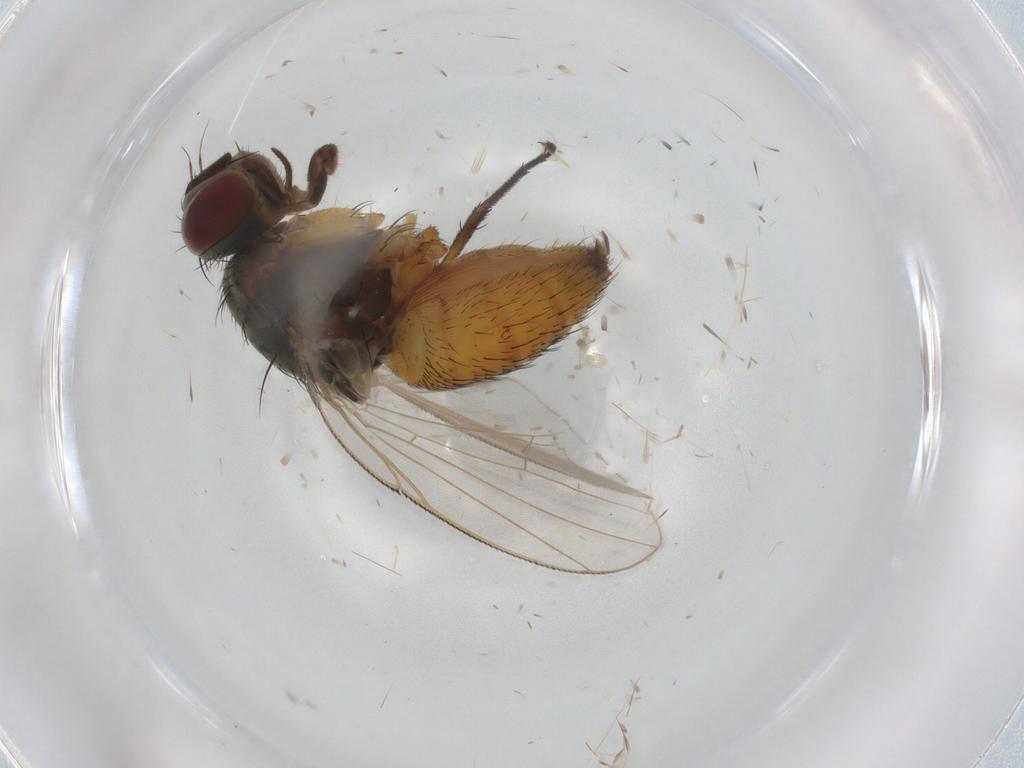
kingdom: Animalia
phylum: Arthropoda
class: Insecta
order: Diptera
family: Muscidae
